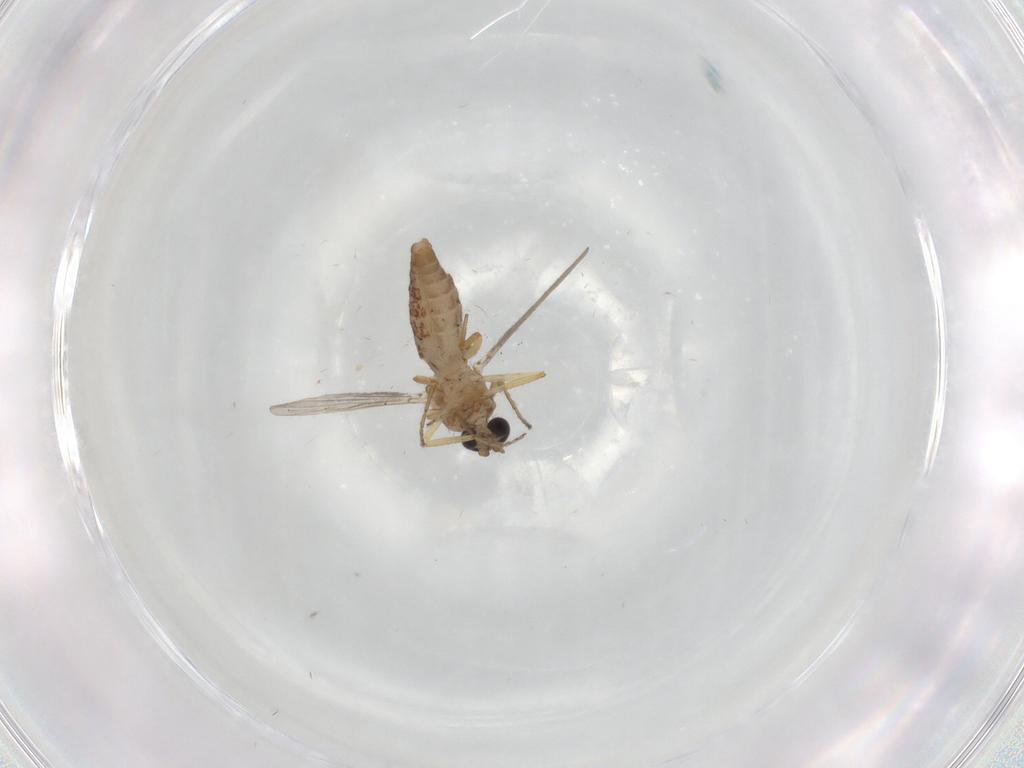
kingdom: Animalia
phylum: Arthropoda
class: Insecta
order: Diptera
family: Ceratopogonidae
